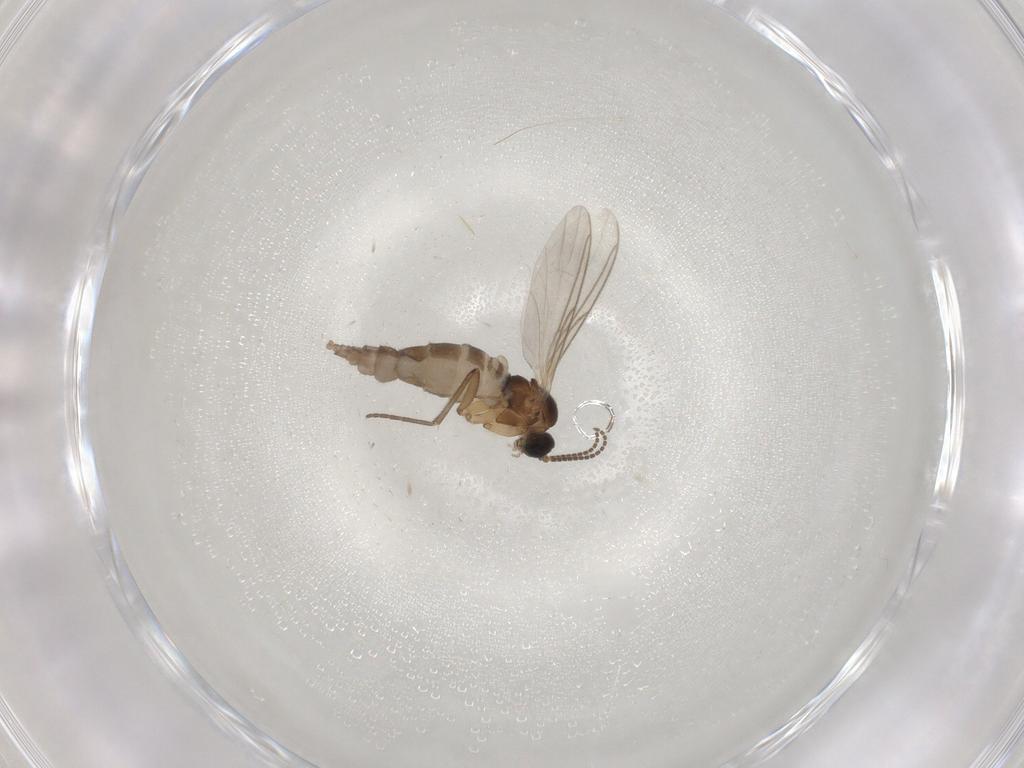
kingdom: Animalia
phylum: Arthropoda
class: Insecta
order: Diptera
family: Sciaridae
